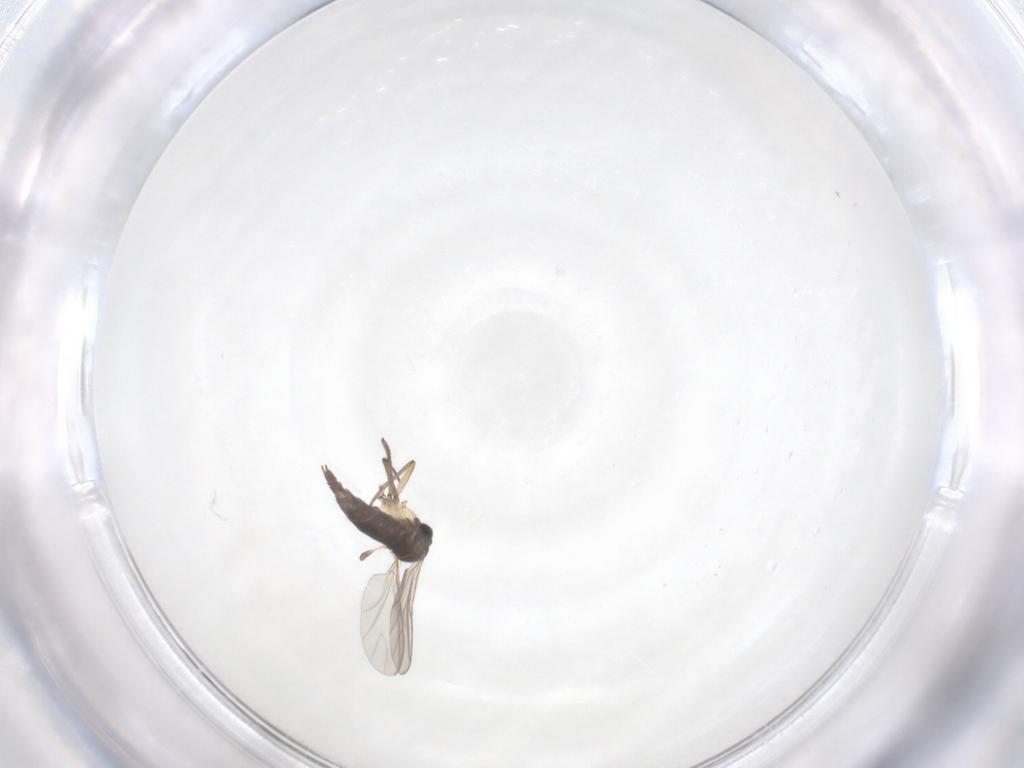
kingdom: Animalia
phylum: Arthropoda
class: Insecta
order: Diptera
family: Sciaridae
